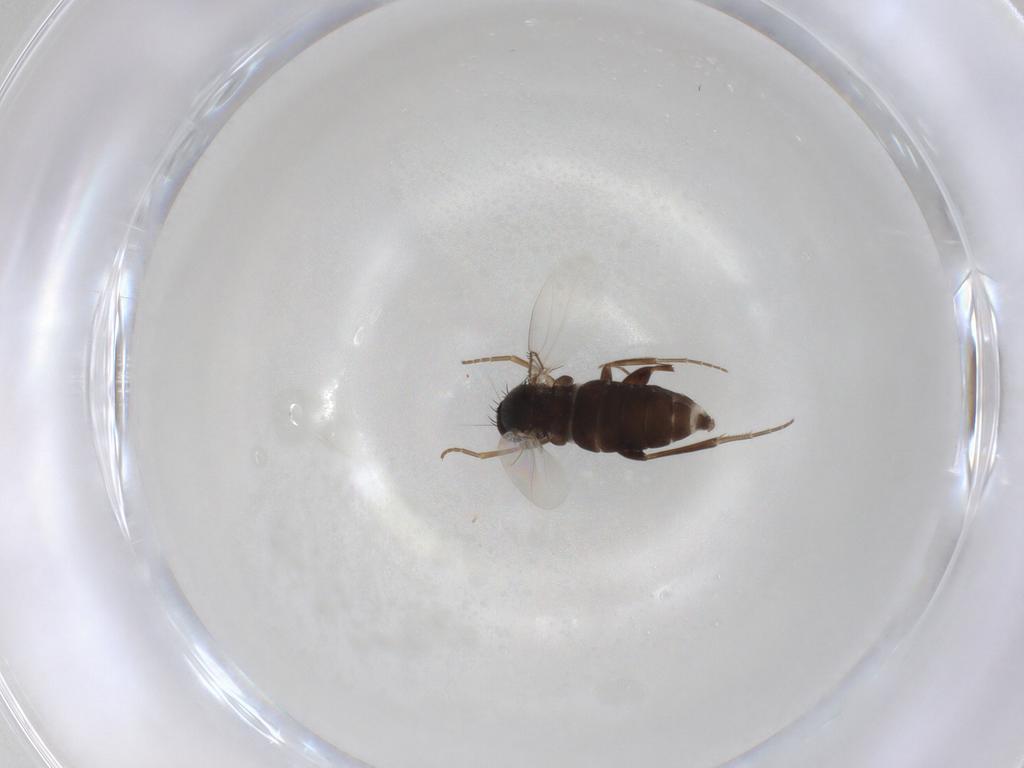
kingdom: Animalia
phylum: Arthropoda
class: Insecta
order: Diptera
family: Chironomidae
